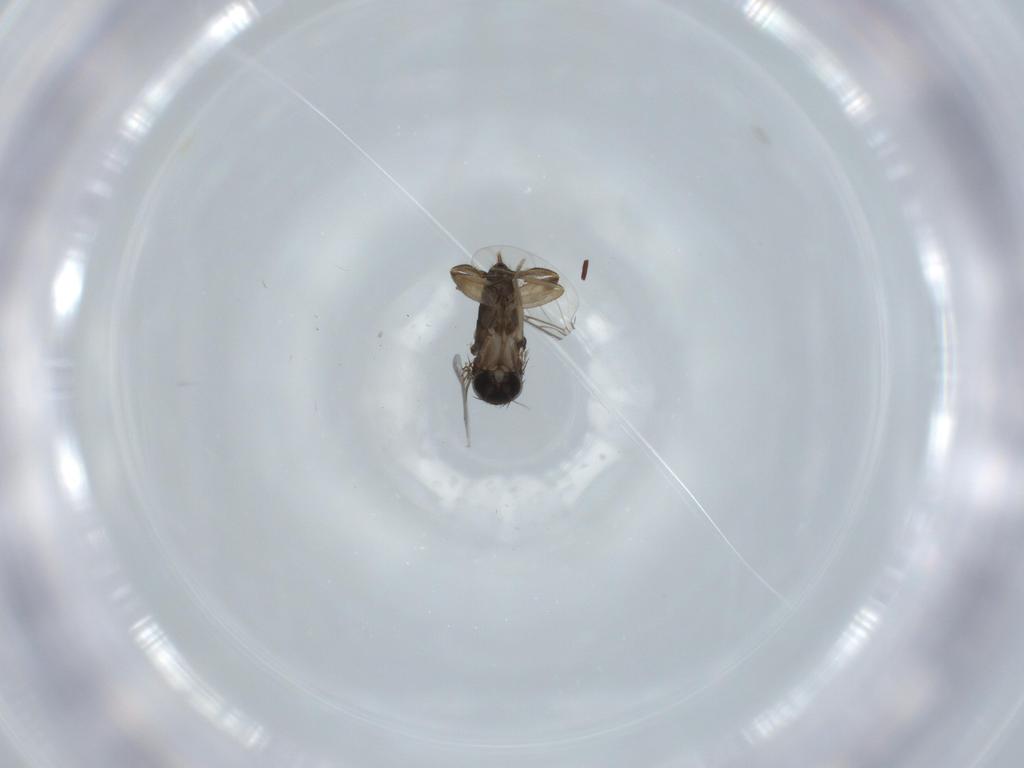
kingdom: Animalia
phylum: Arthropoda
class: Insecta
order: Diptera
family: Phoridae
